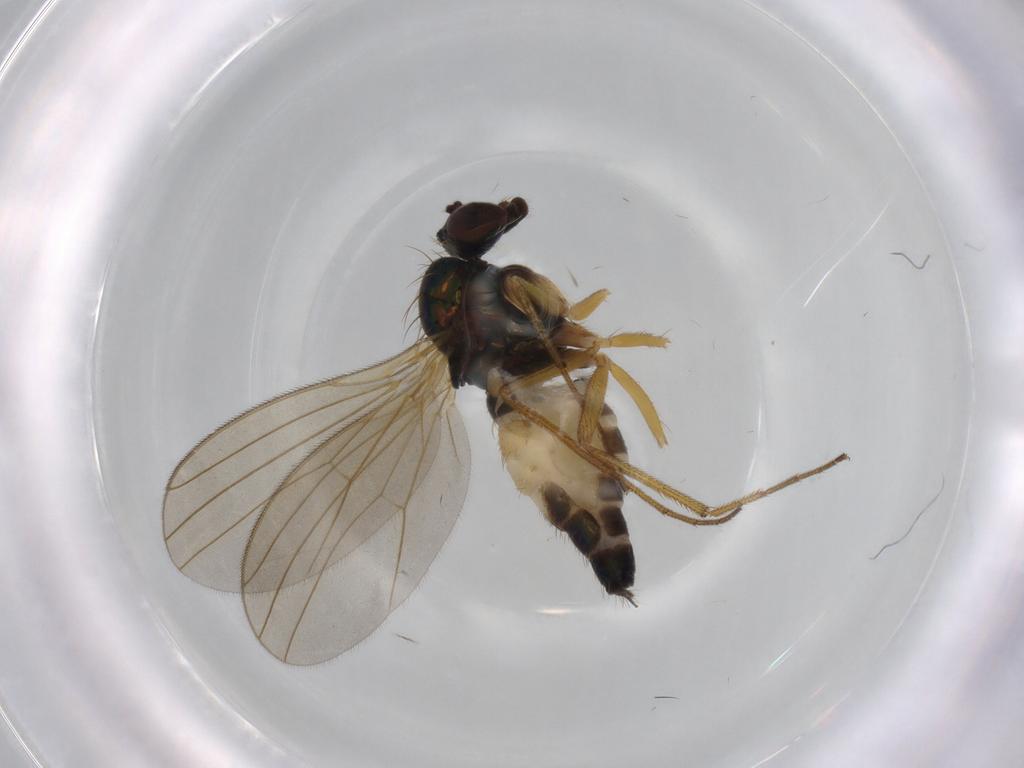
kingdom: Animalia
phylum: Arthropoda
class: Insecta
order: Diptera
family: Dolichopodidae
